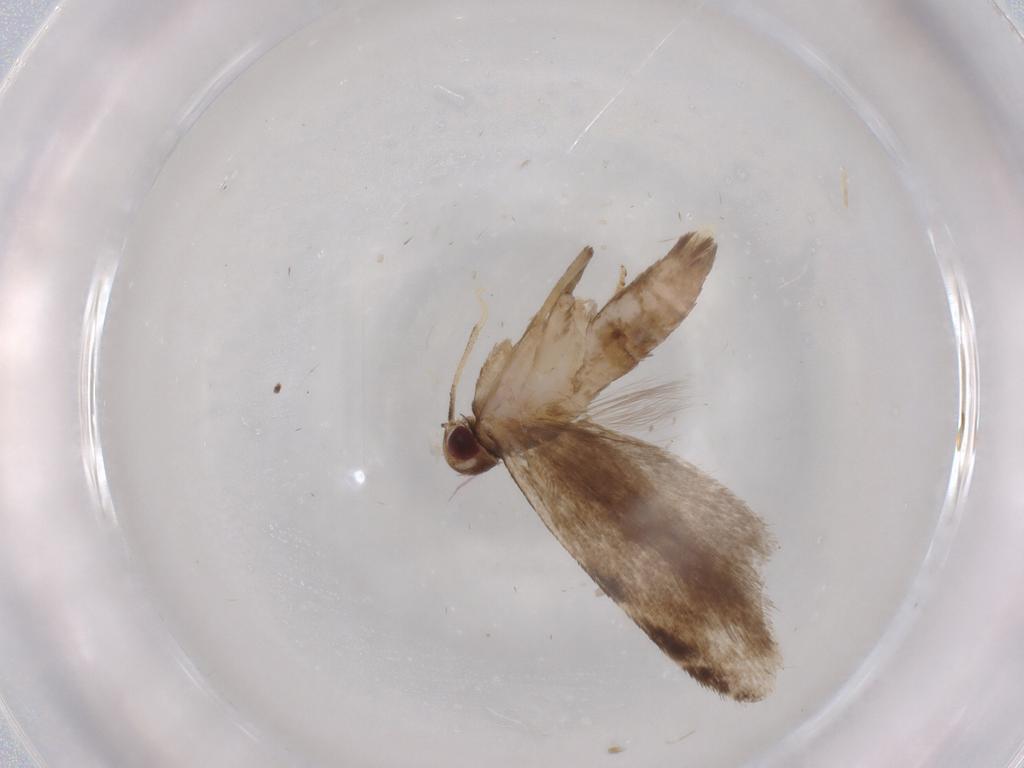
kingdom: Animalia
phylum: Arthropoda
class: Insecta
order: Lepidoptera
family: Gelechiidae
